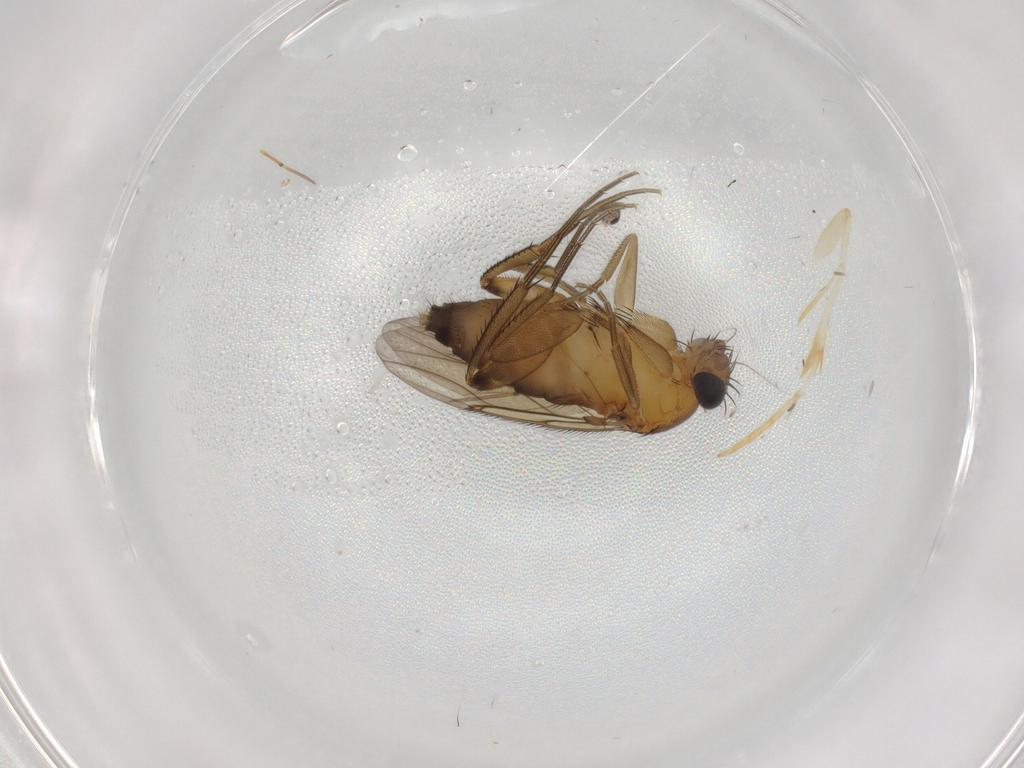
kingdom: Animalia
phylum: Arthropoda
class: Insecta
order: Diptera
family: Phoridae
